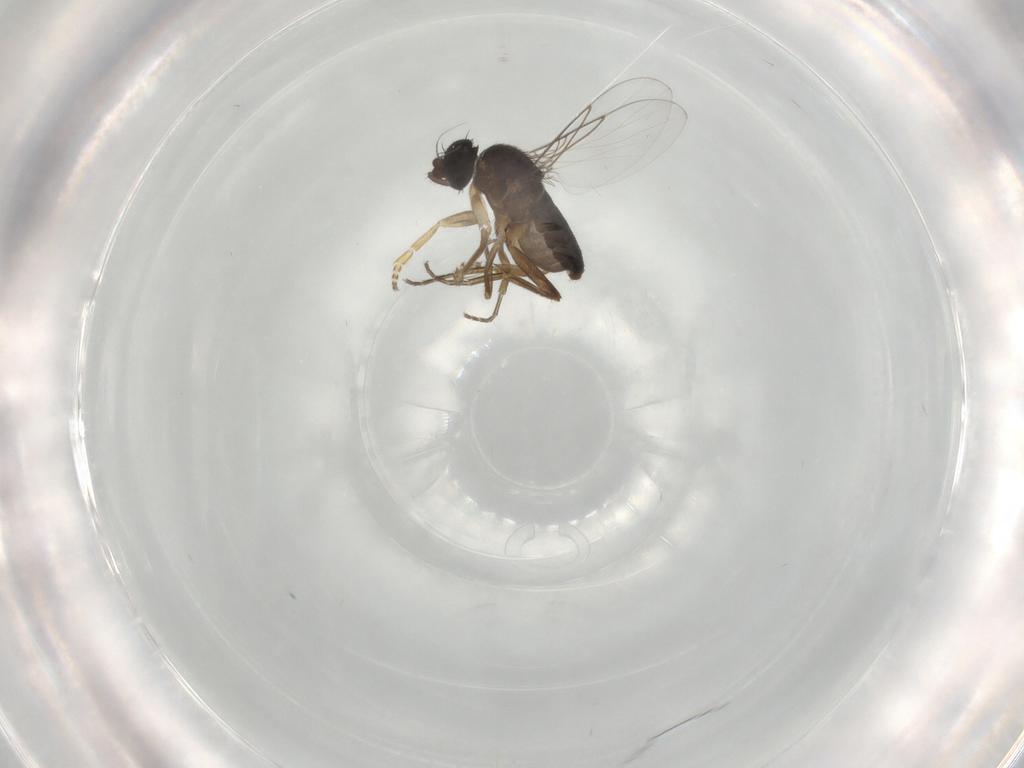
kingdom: Animalia
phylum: Arthropoda
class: Insecta
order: Diptera
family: Phoridae
